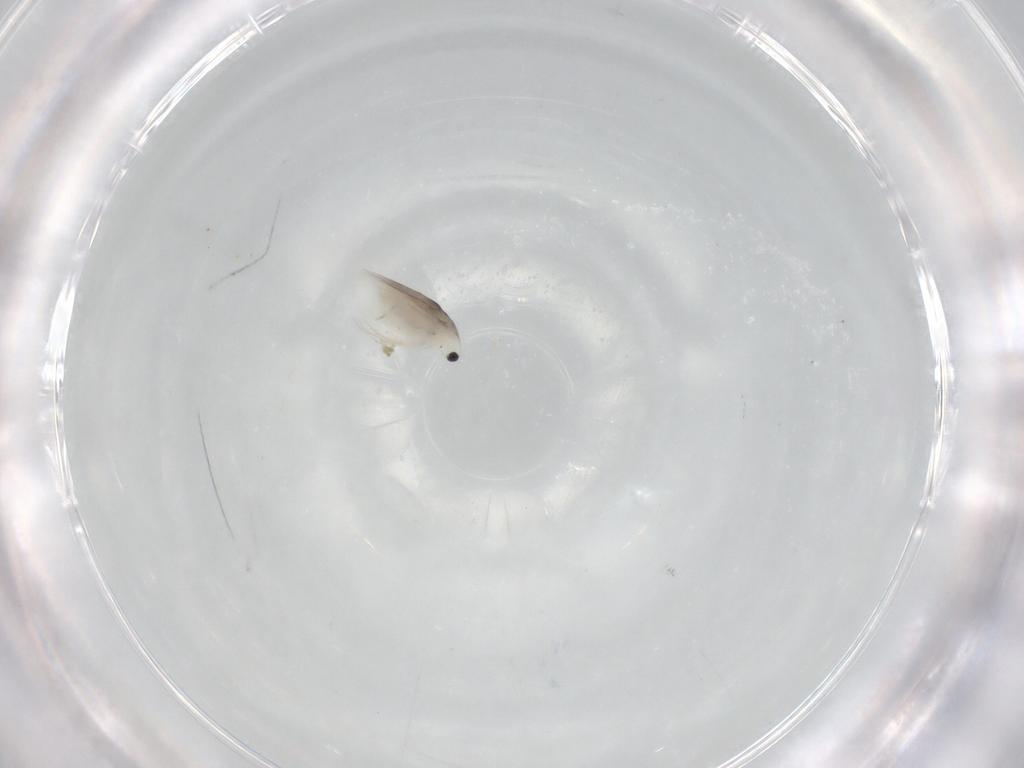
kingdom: Animalia
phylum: Arthropoda
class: Branchiopoda
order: Diplostraca
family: Daphniidae
